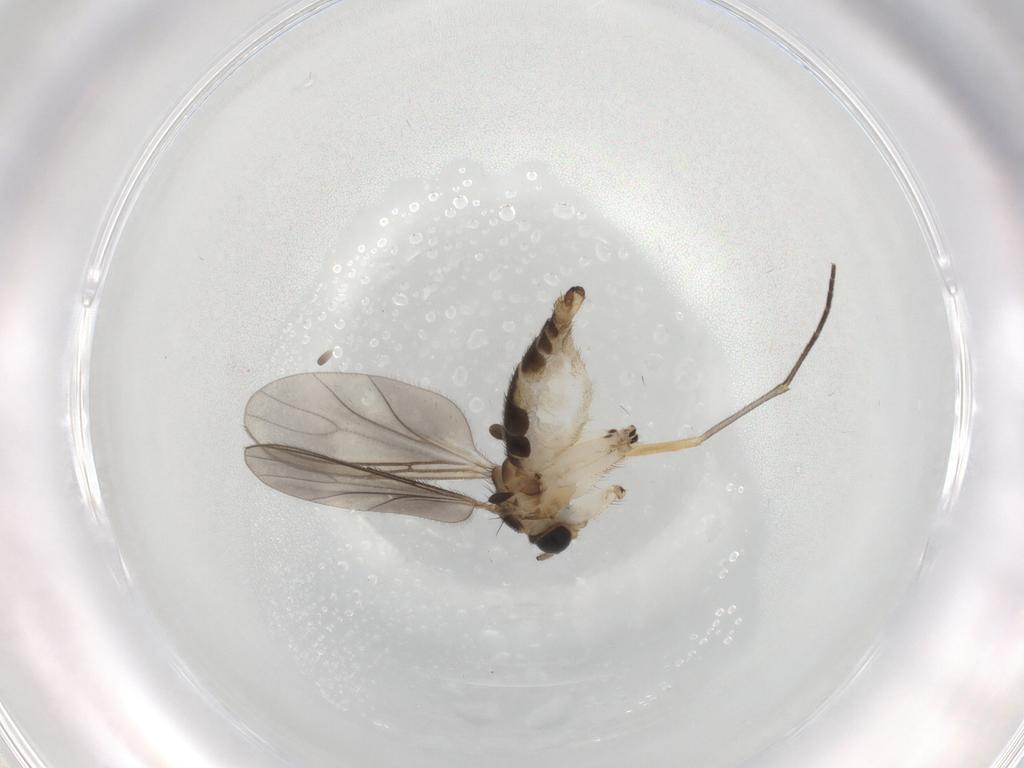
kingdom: Animalia
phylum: Arthropoda
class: Insecta
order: Diptera
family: Sciaridae
